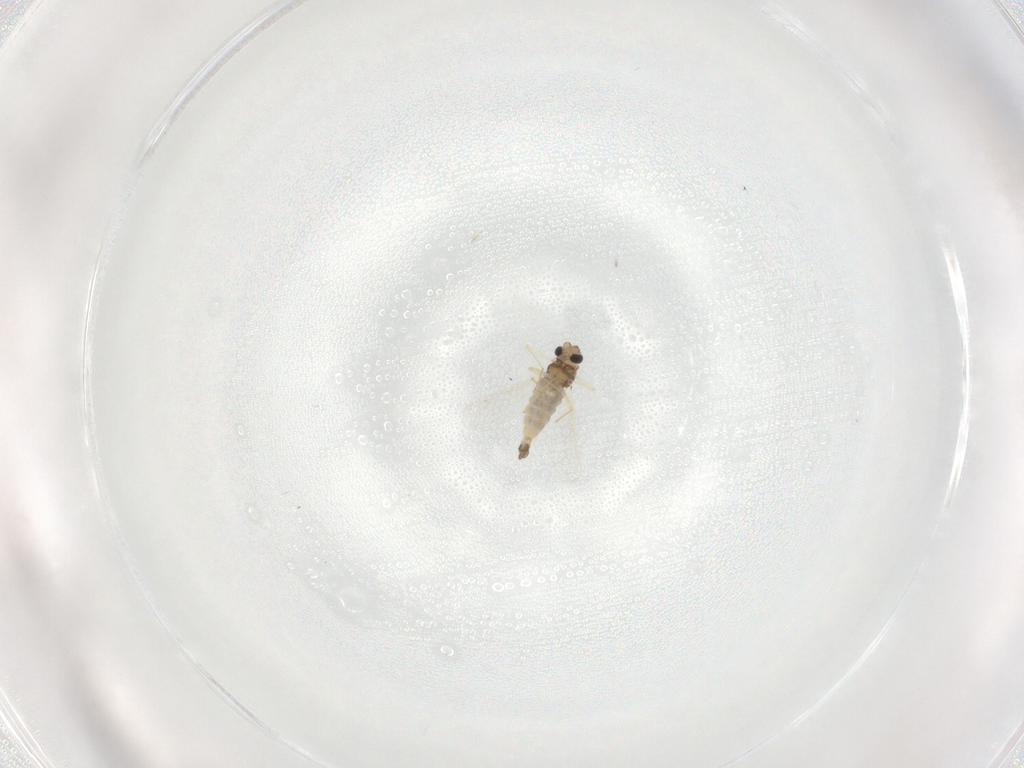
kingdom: Animalia
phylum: Arthropoda
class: Insecta
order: Diptera
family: Chironomidae
